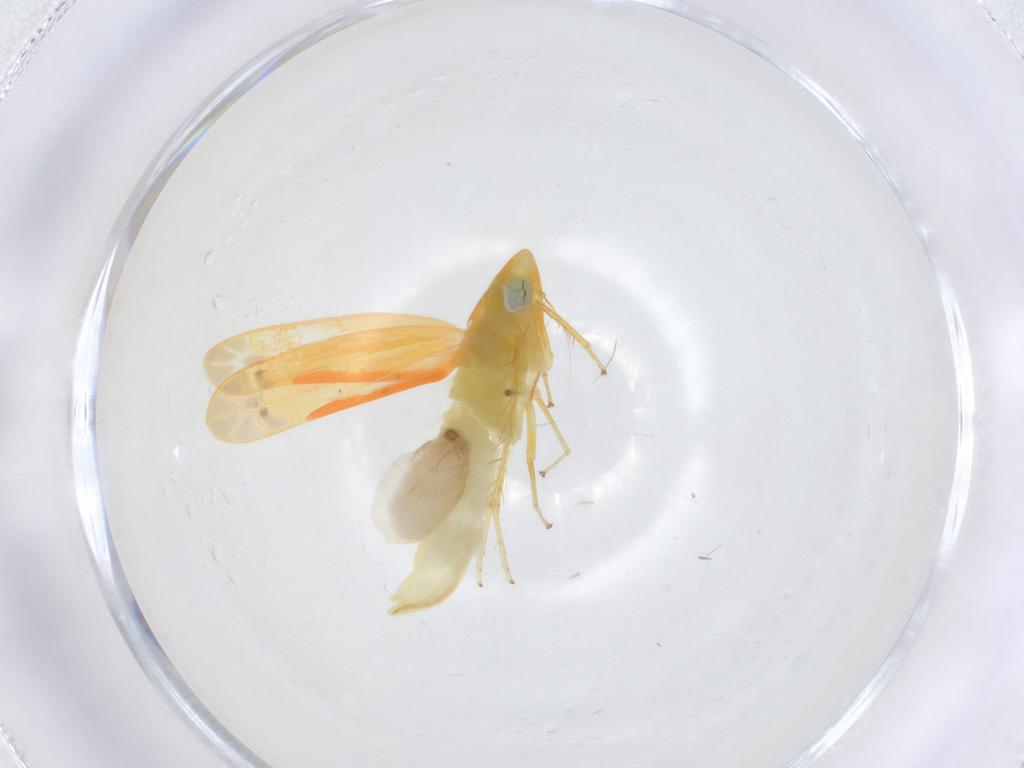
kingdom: Animalia
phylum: Arthropoda
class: Insecta
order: Hemiptera
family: Cicadellidae
